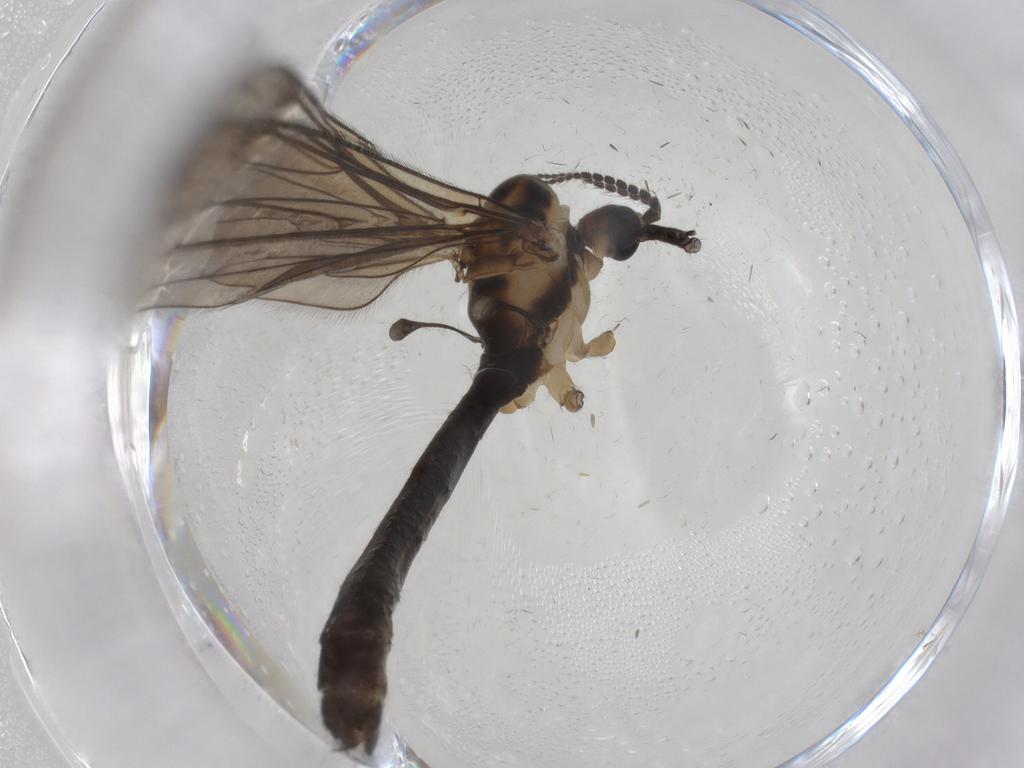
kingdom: Animalia
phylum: Arthropoda
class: Insecta
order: Diptera
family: Limoniidae
